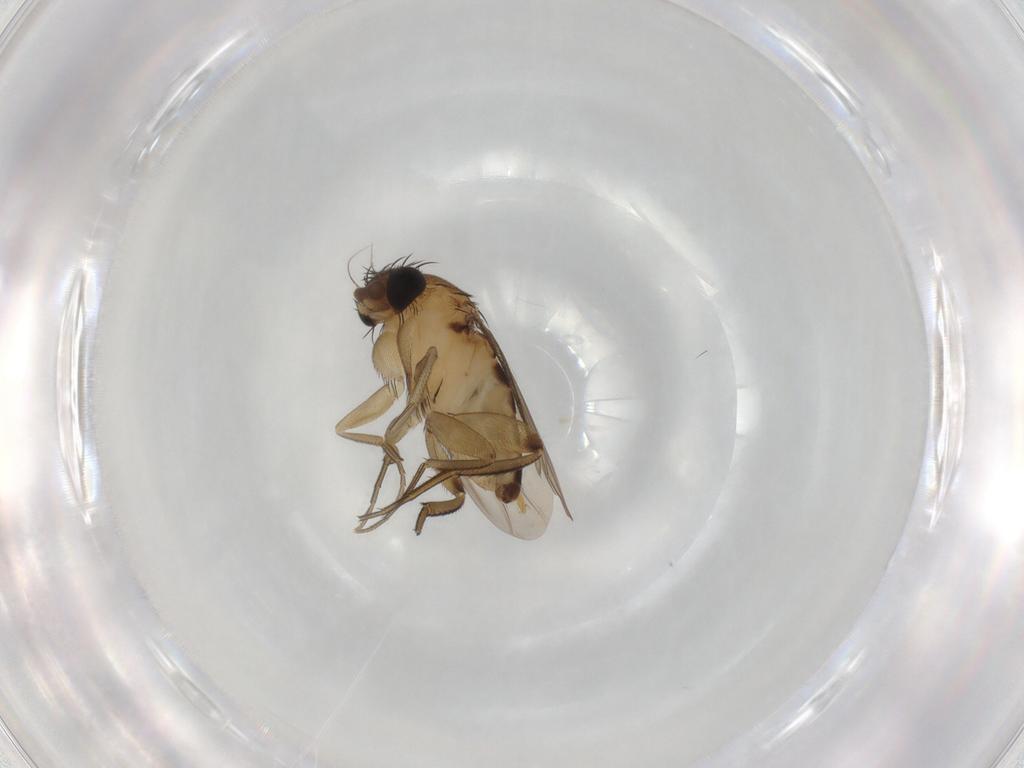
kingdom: Animalia
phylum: Arthropoda
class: Insecta
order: Diptera
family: Phoridae
